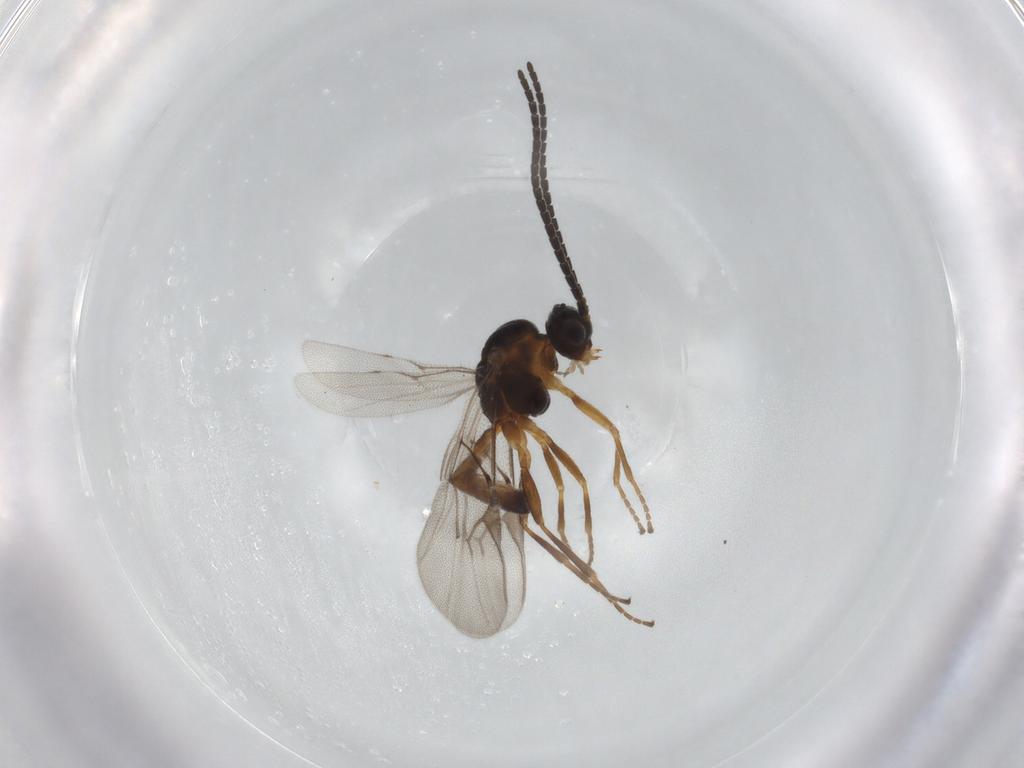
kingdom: Animalia
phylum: Arthropoda
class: Insecta
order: Hymenoptera
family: Braconidae
